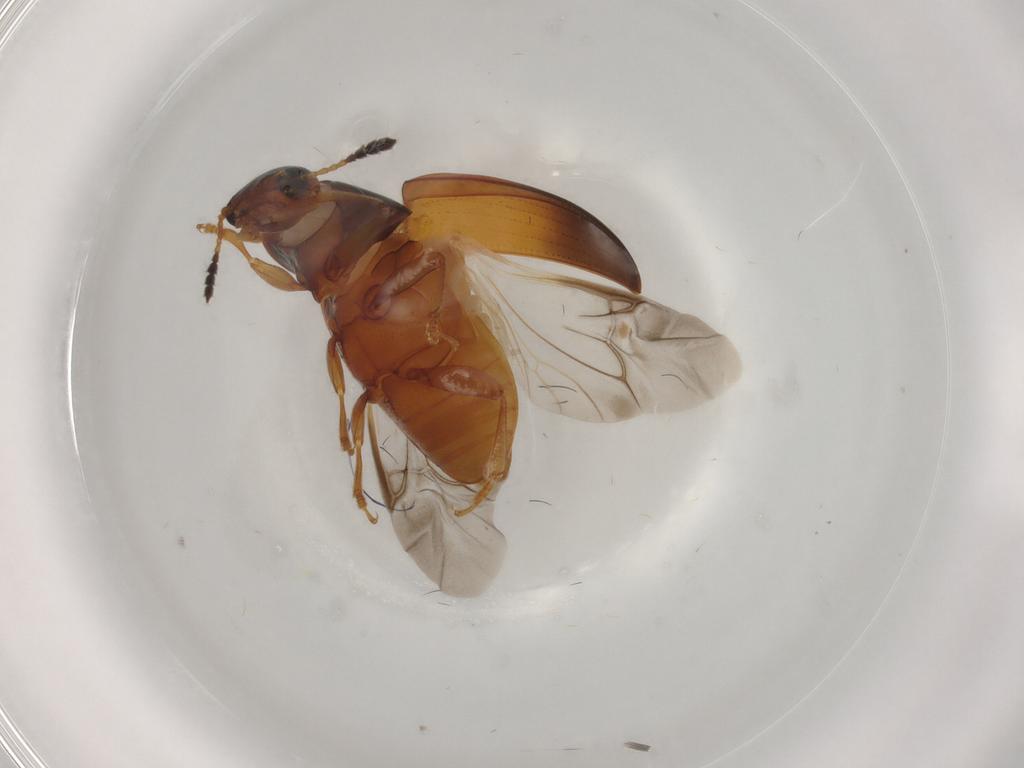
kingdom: Animalia
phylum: Arthropoda
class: Insecta
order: Coleoptera
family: Erotylidae
